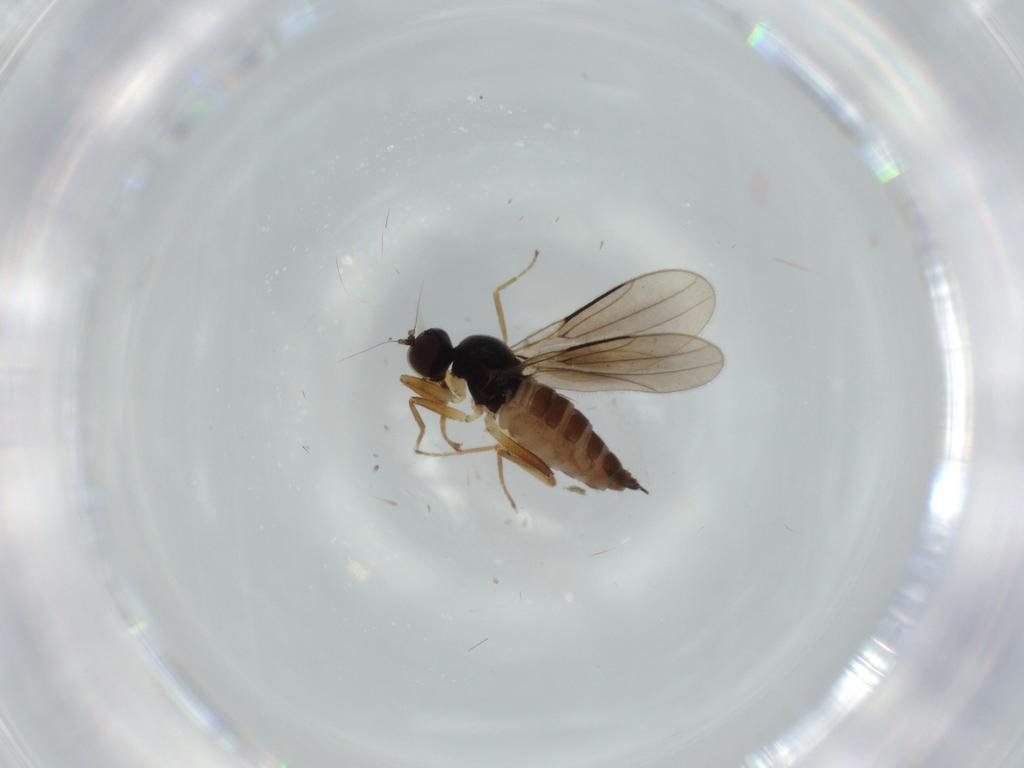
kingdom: Animalia
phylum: Arthropoda
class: Insecta
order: Diptera
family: Hybotidae
